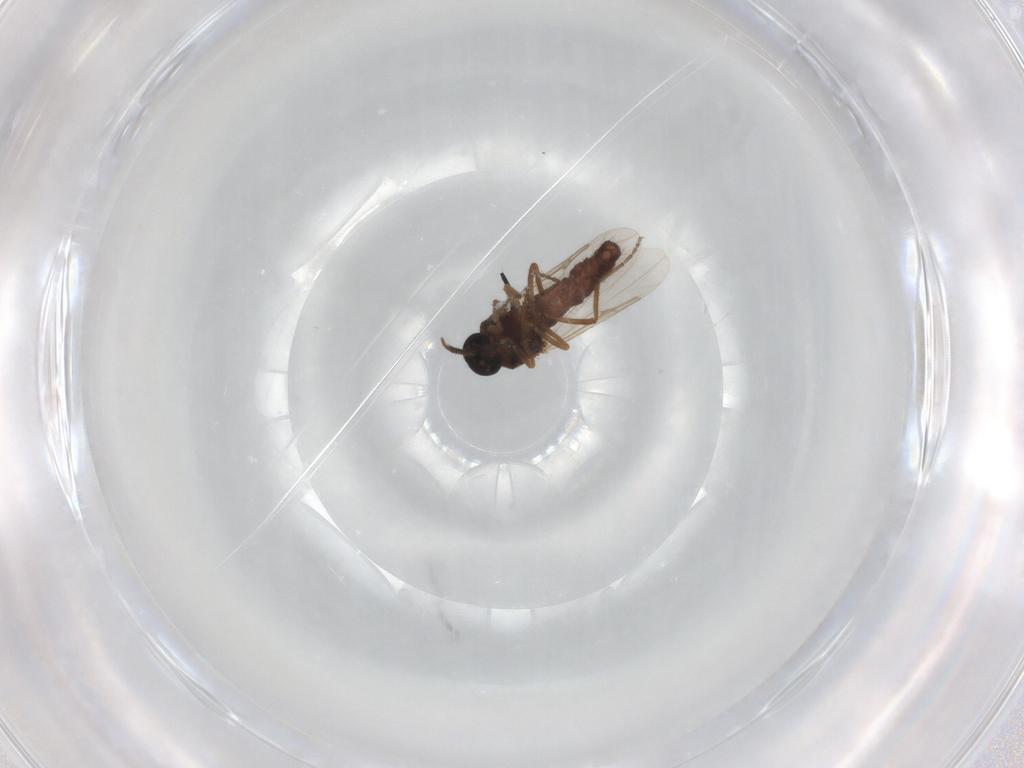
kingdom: Animalia
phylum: Arthropoda
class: Insecta
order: Diptera
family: Ceratopogonidae
